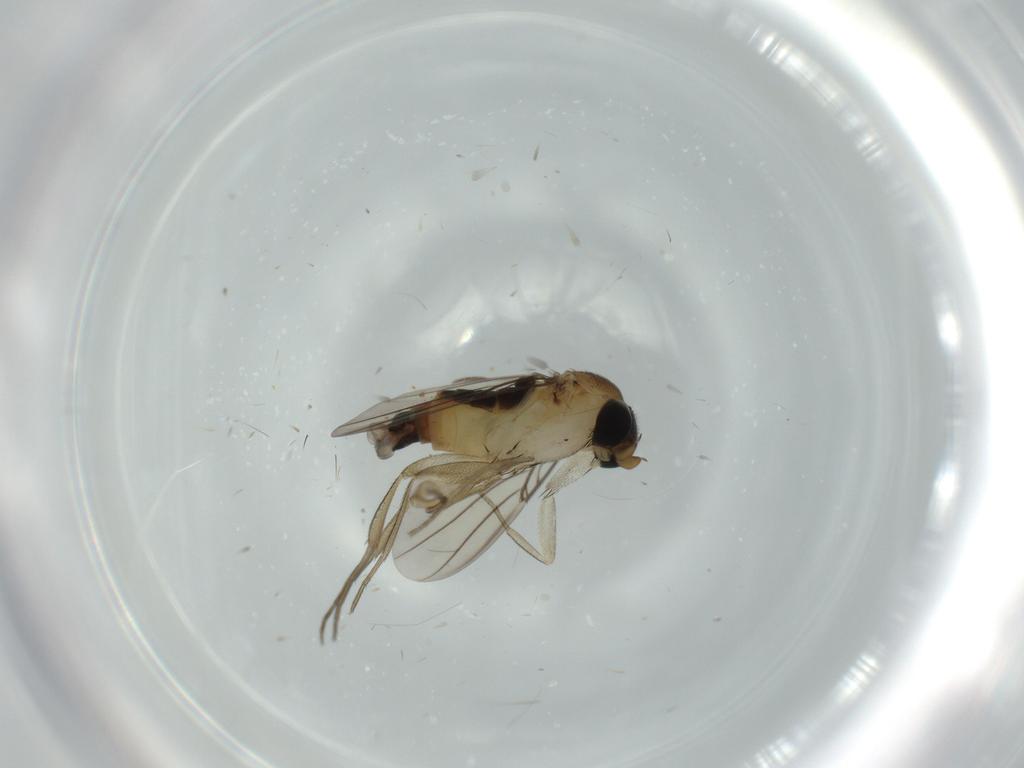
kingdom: Animalia
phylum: Arthropoda
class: Insecta
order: Diptera
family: Phoridae
